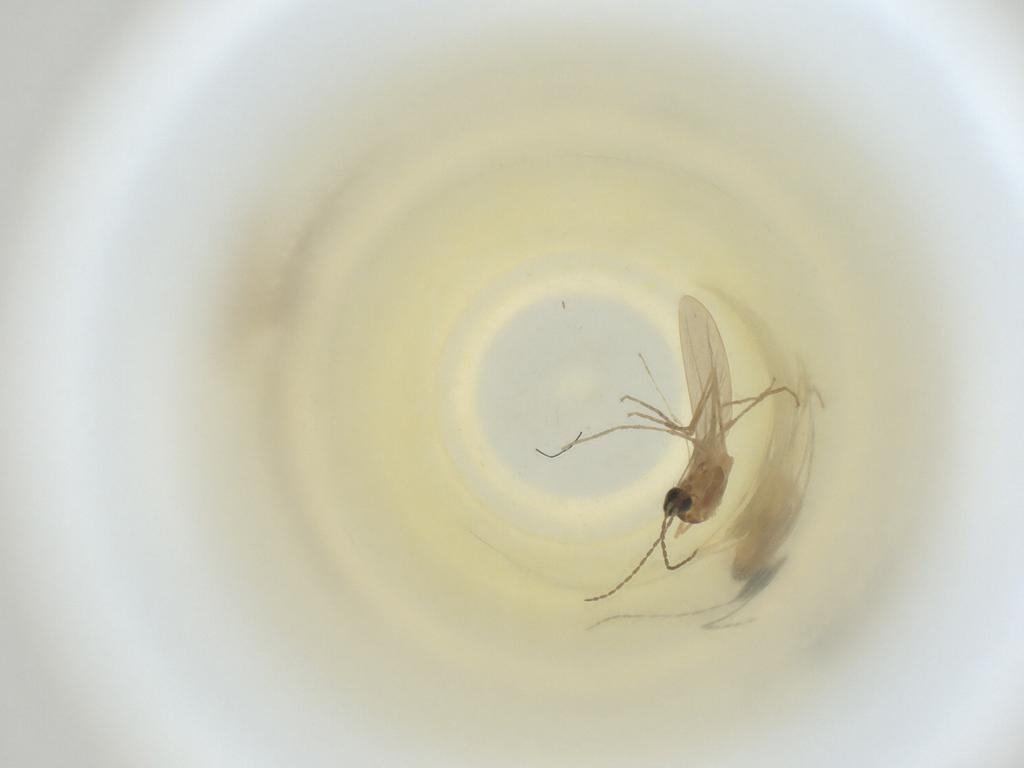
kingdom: Animalia
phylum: Arthropoda
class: Insecta
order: Diptera
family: Cecidomyiidae
